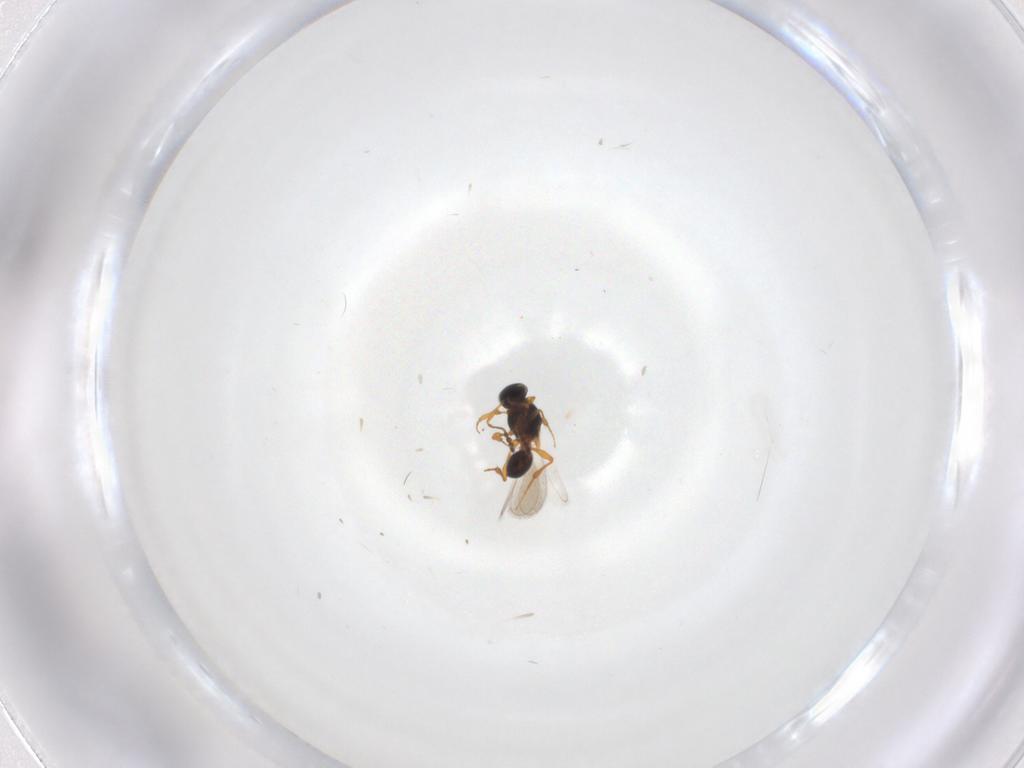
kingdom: Animalia
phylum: Arthropoda
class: Insecta
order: Hymenoptera
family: Platygastridae
